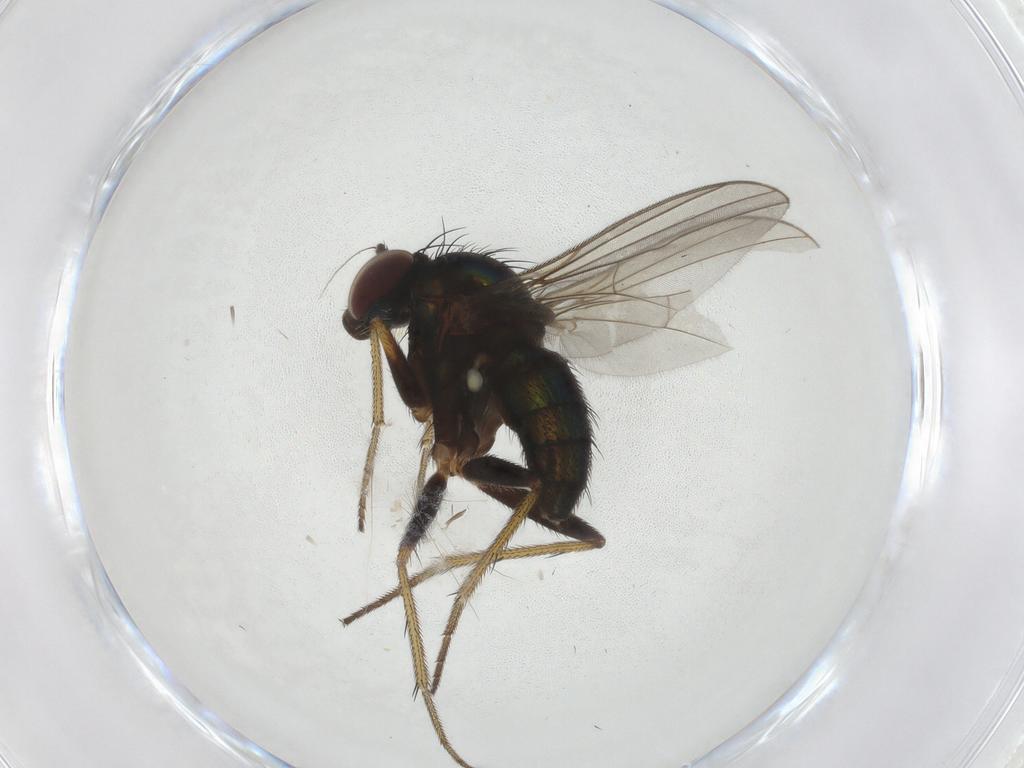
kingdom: Animalia
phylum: Arthropoda
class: Insecta
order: Diptera
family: Dolichopodidae
